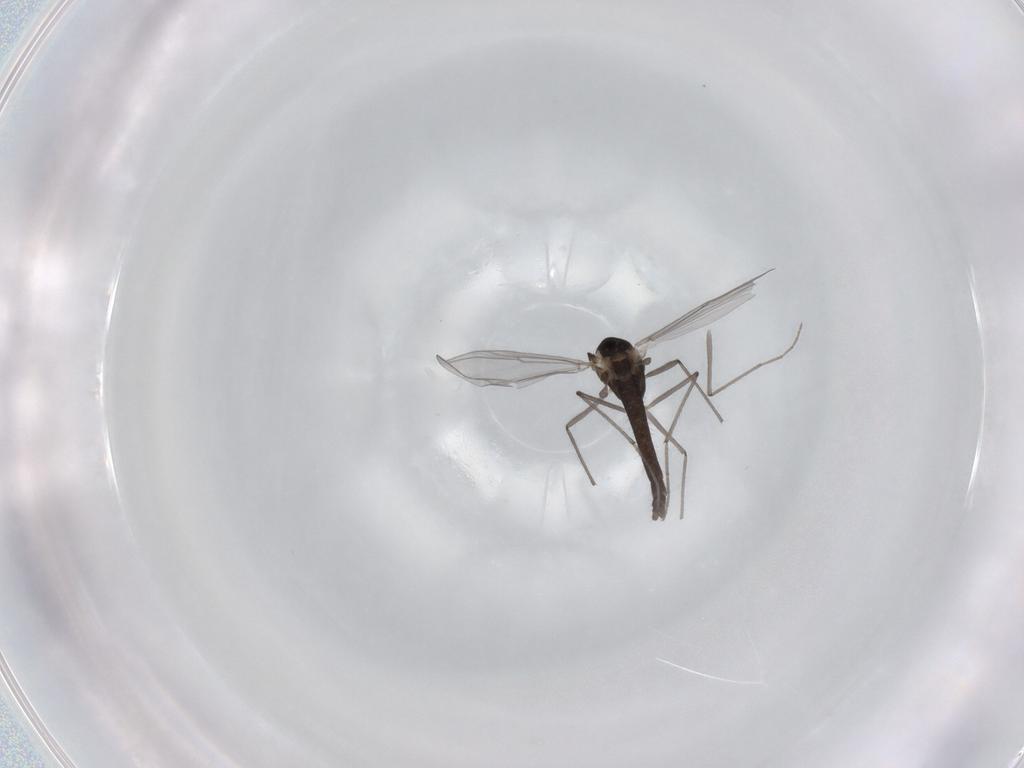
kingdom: Animalia
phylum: Arthropoda
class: Insecta
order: Diptera
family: Chironomidae
